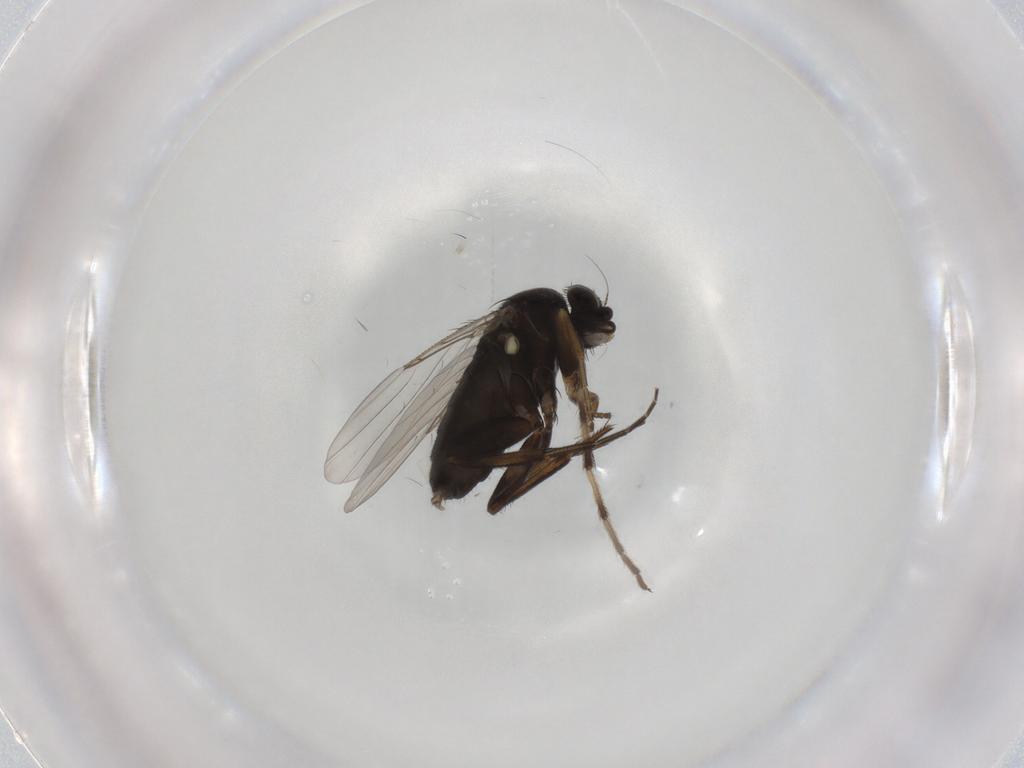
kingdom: Animalia
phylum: Arthropoda
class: Insecta
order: Diptera
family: Phoridae
